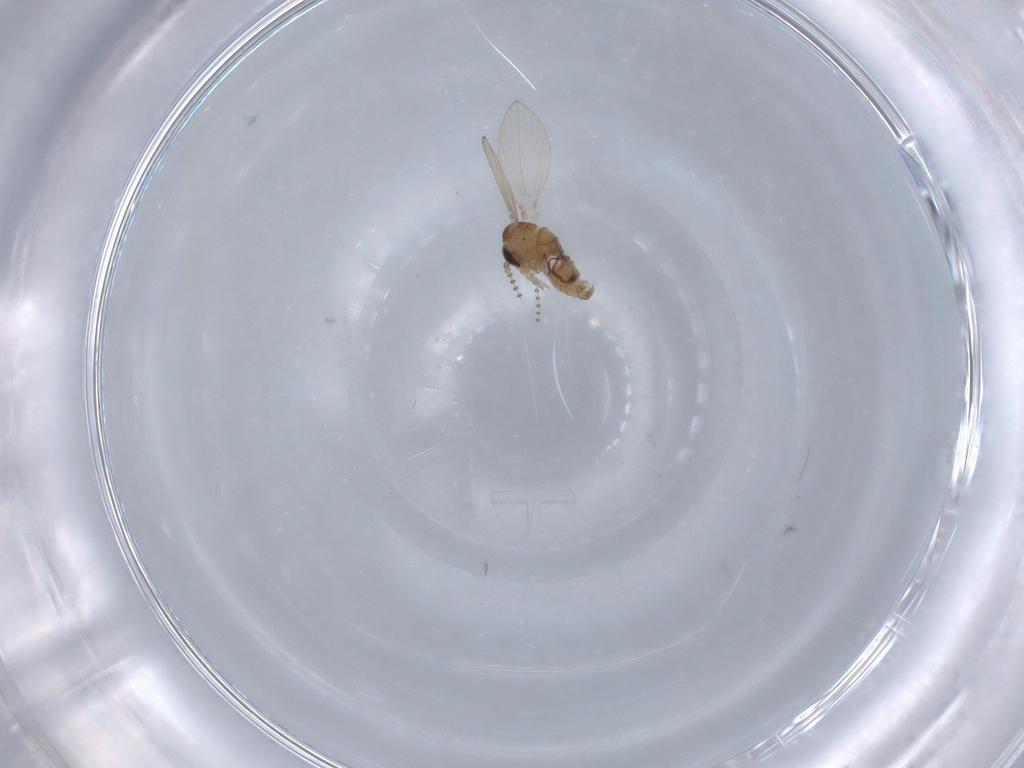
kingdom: Animalia
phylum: Arthropoda
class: Insecta
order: Diptera
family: Psychodidae
